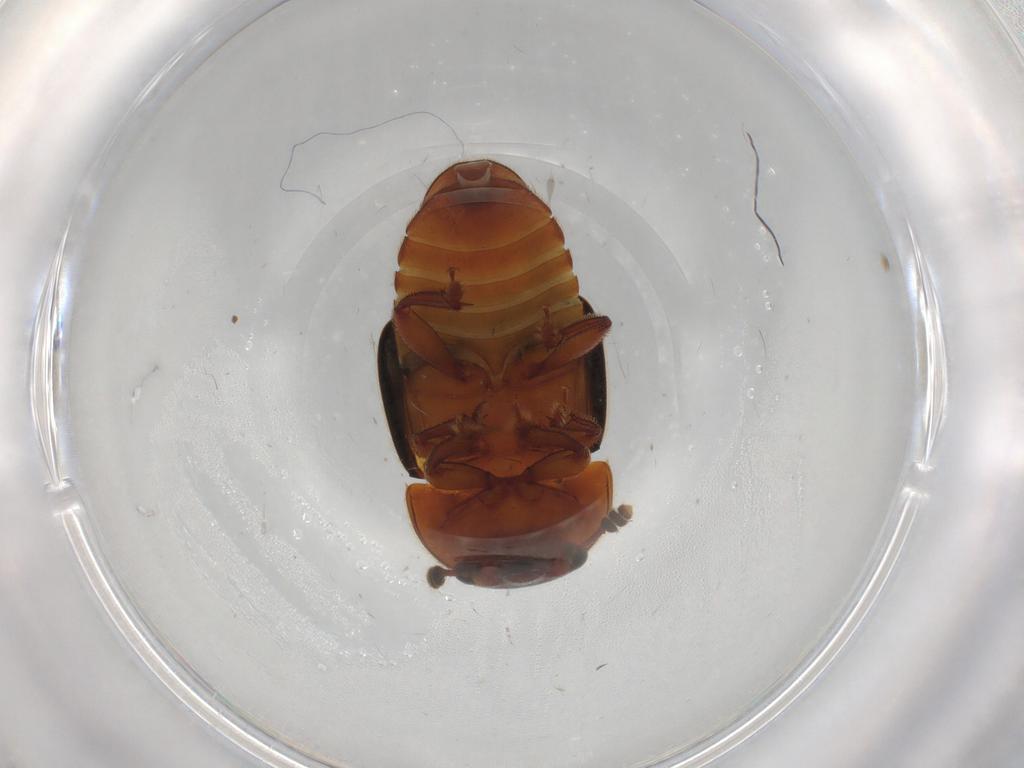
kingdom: Animalia
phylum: Arthropoda
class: Insecta
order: Coleoptera
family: Nitidulidae
